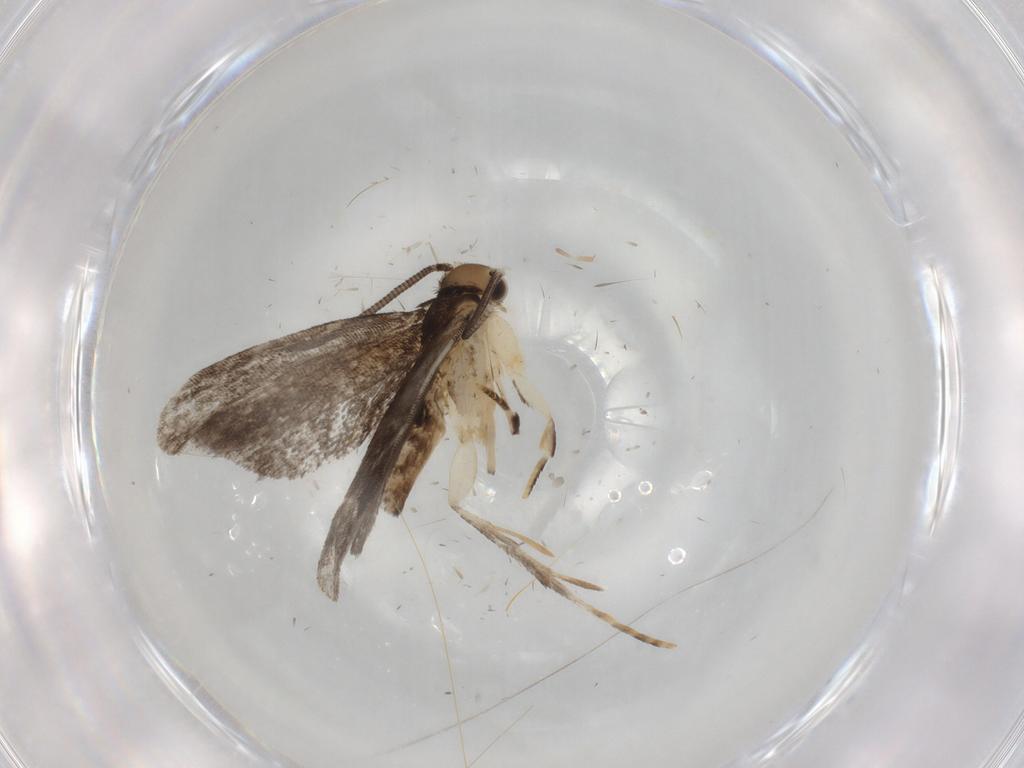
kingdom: Animalia
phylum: Arthropoda
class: Insecta
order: Lepidoptera
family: Dryadaulidae
